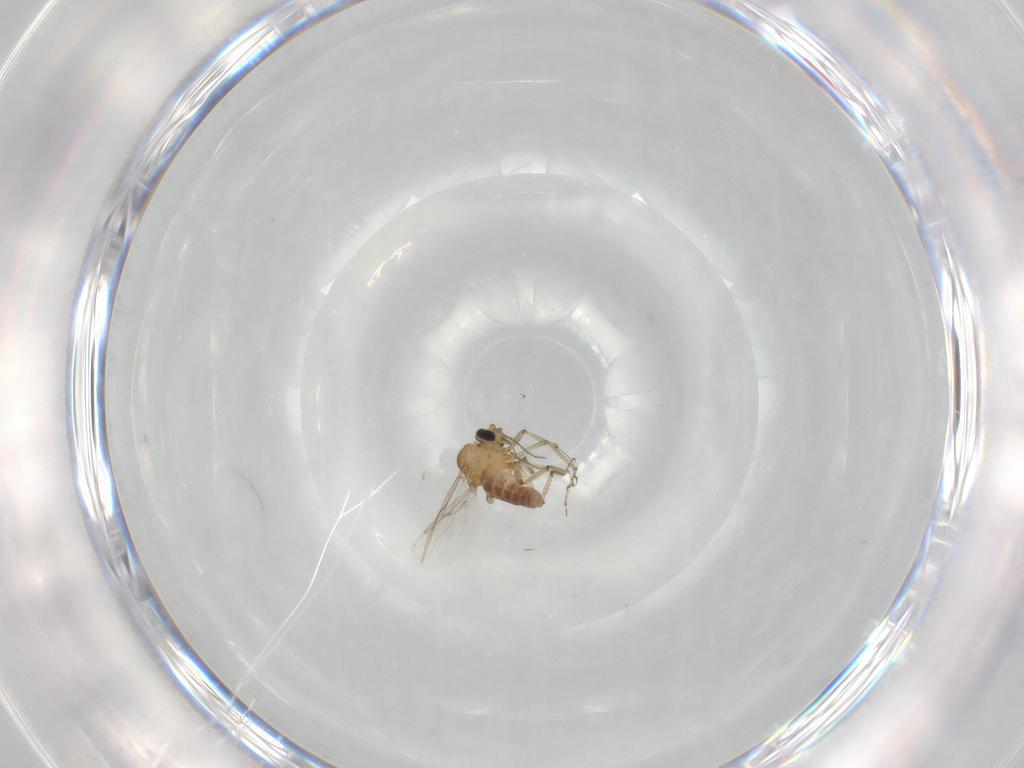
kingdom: Animalia
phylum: Arthropoda
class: Insecta
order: Diptera
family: Ceratopogonidae
